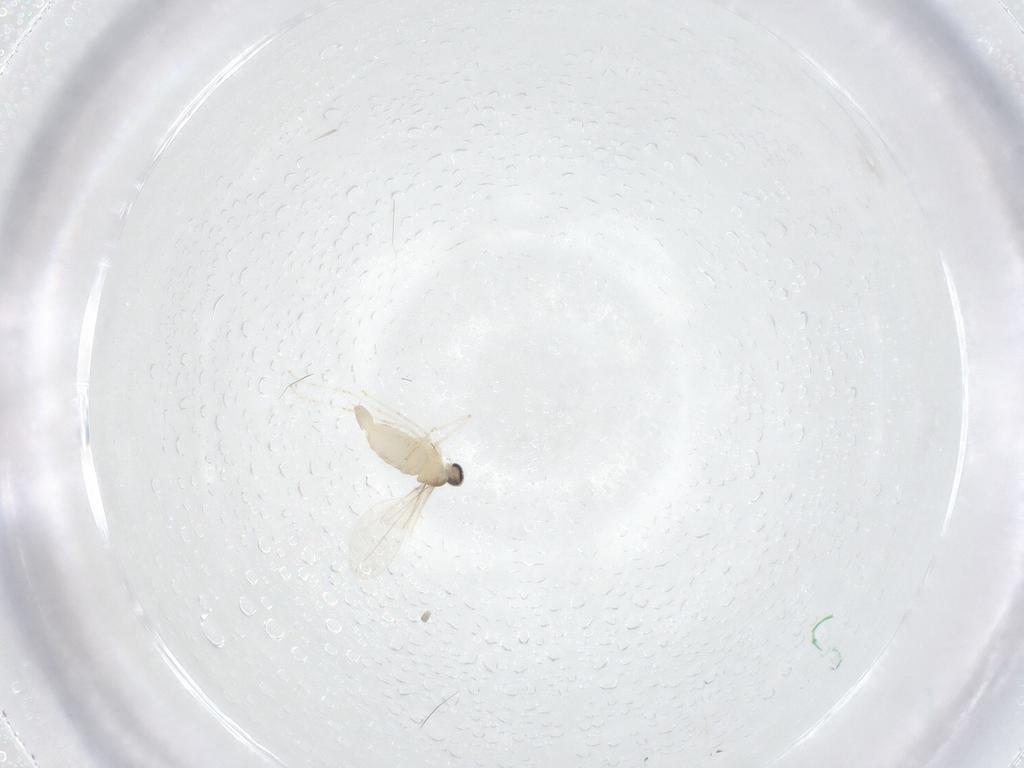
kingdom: Animalia
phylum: Arthropoda
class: Insecta
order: Diptera
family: Cecidomyiidae
